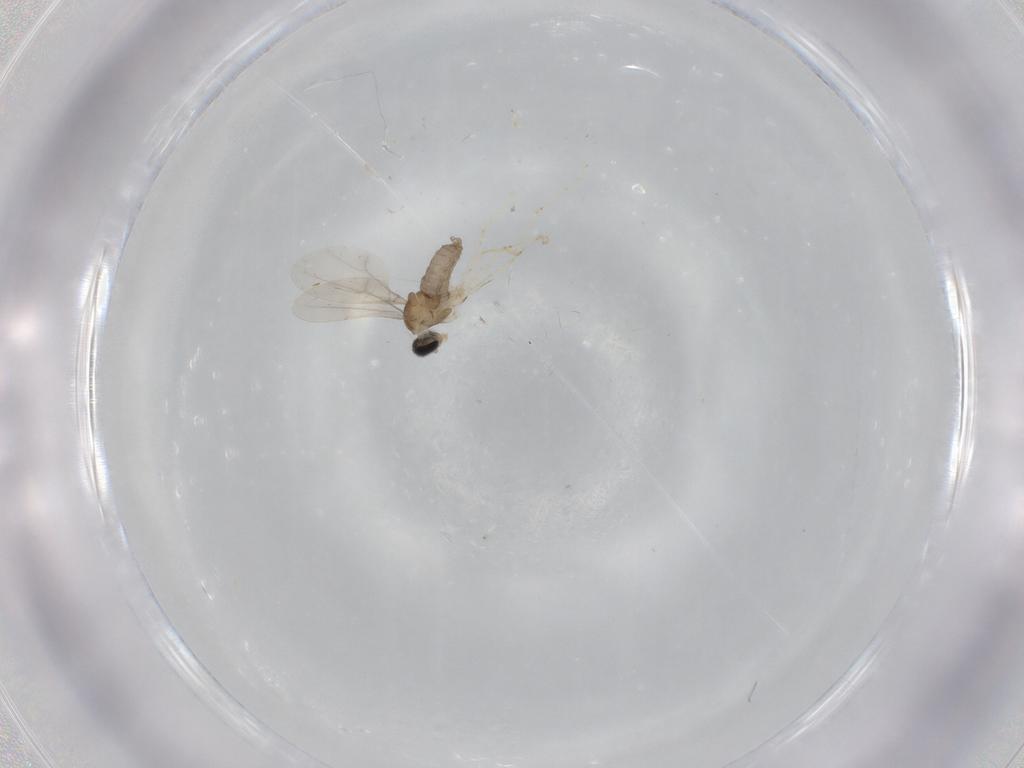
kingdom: Animalia
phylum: Arthropoda
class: Insecta
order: Diptera
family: Cecidomyiidae
